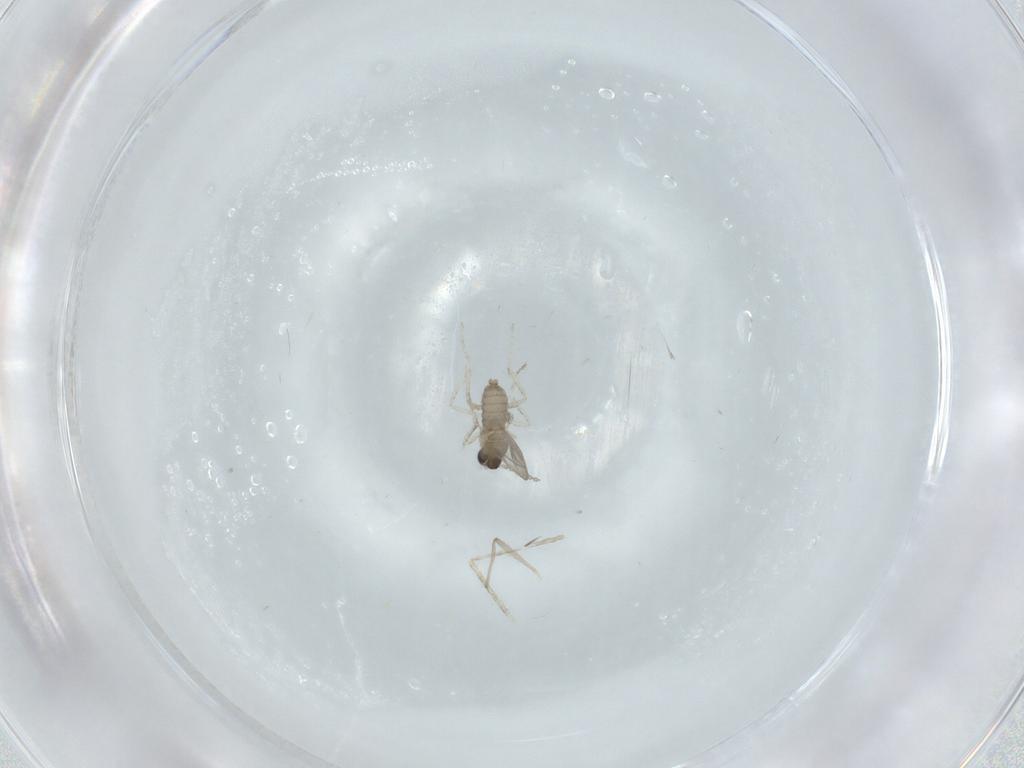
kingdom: Animalia
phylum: Arthropoda
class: Insecta
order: Diptera
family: Cecidomyiidae
